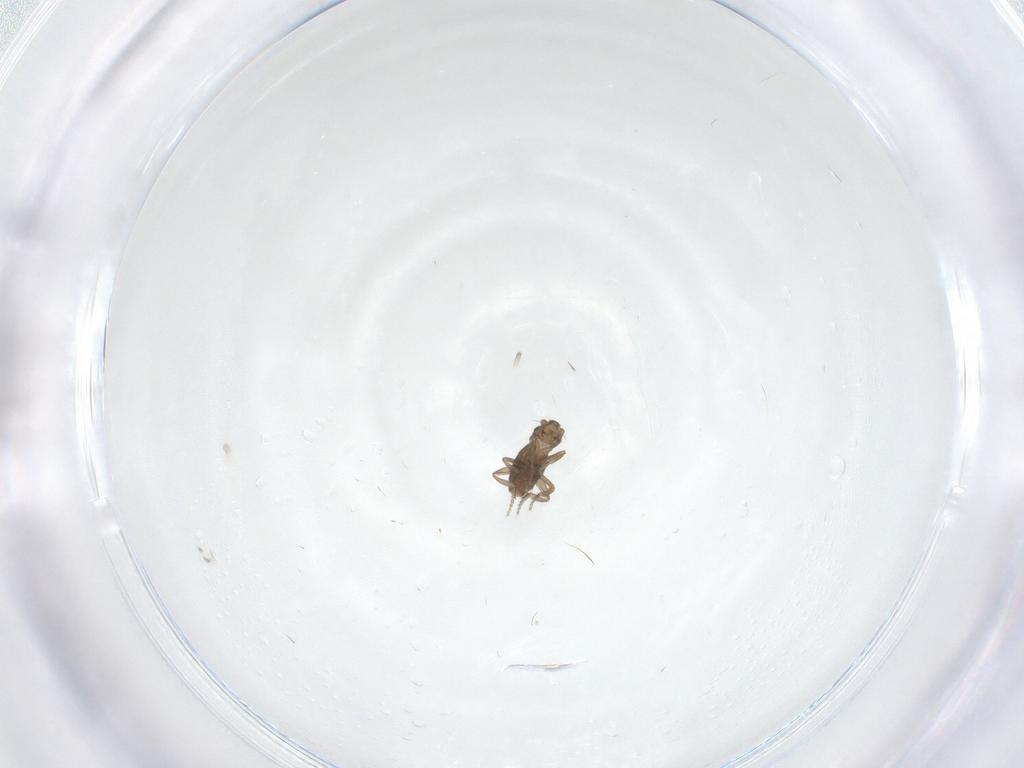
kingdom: Animalia
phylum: Arthropoda
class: Insecta
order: Diptera
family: Phoridae
